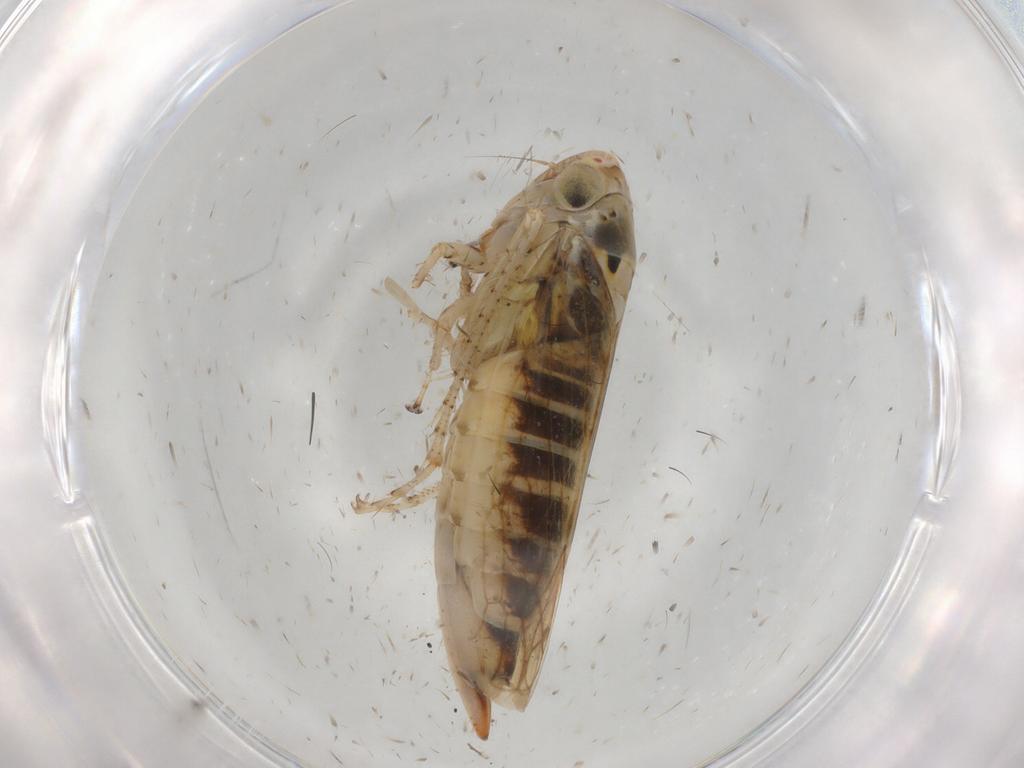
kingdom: Animalia
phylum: Arthropoda
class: Insecta
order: Hemiptera
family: Cicadellidae
